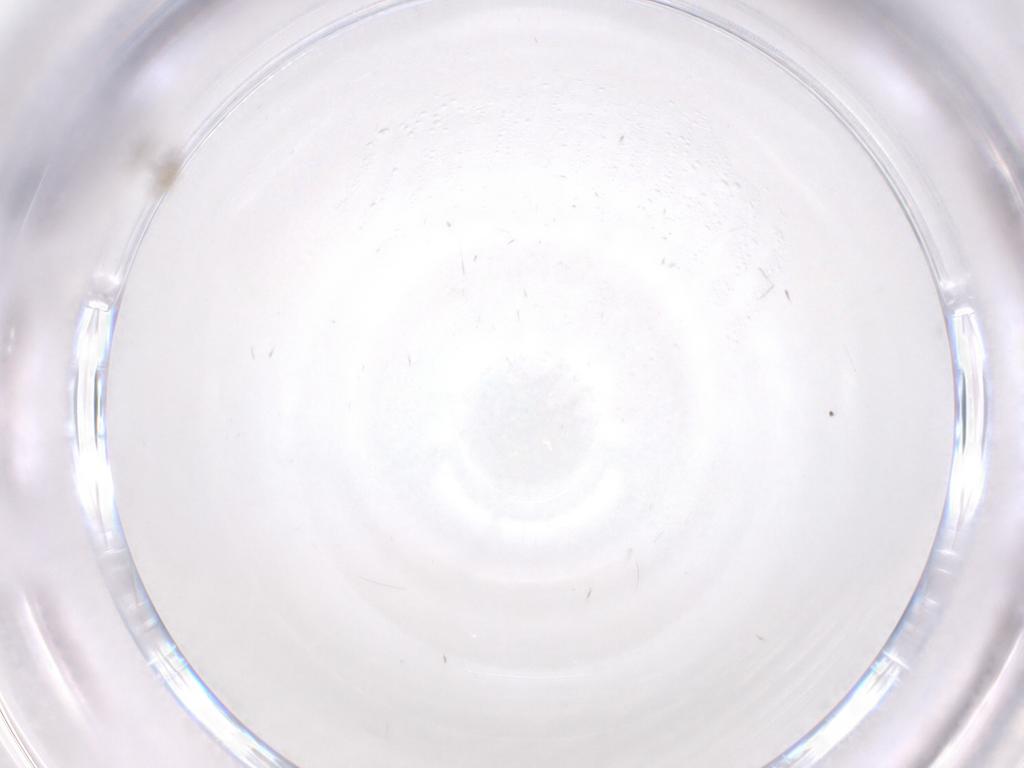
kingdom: Animalia
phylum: Arthropoda
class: Insecta
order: Diptera
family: Cecidomyiidae
